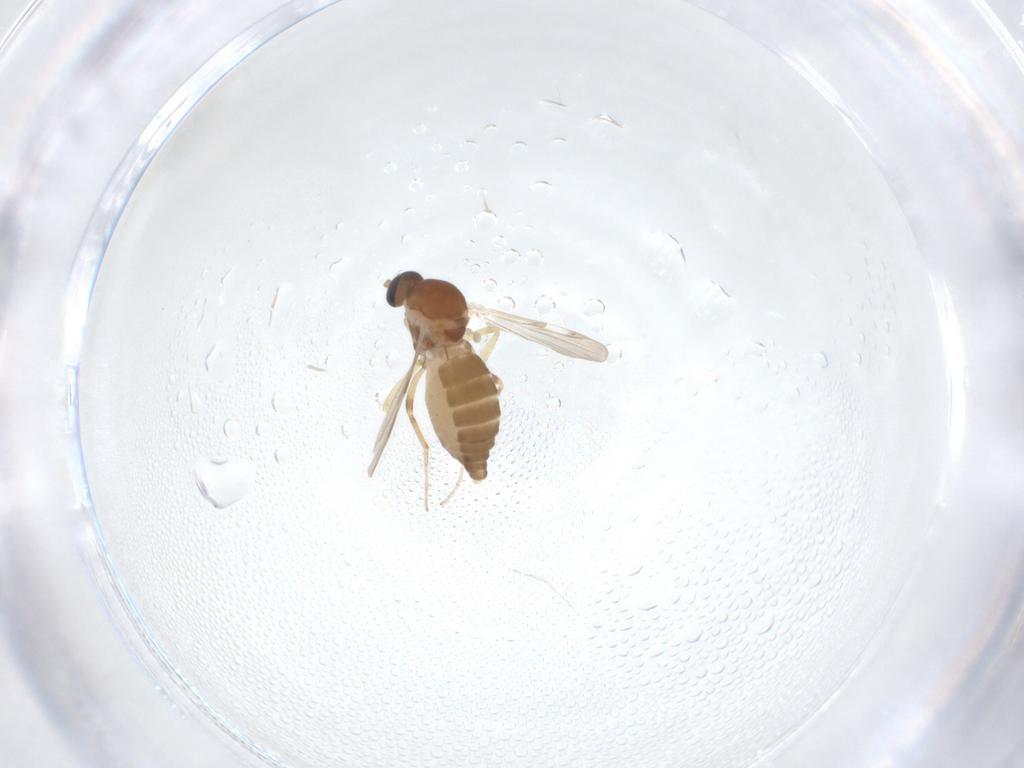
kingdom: Animalia
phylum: Arthropoda
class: Insecta
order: Diptera
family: Ceratopogonidae
